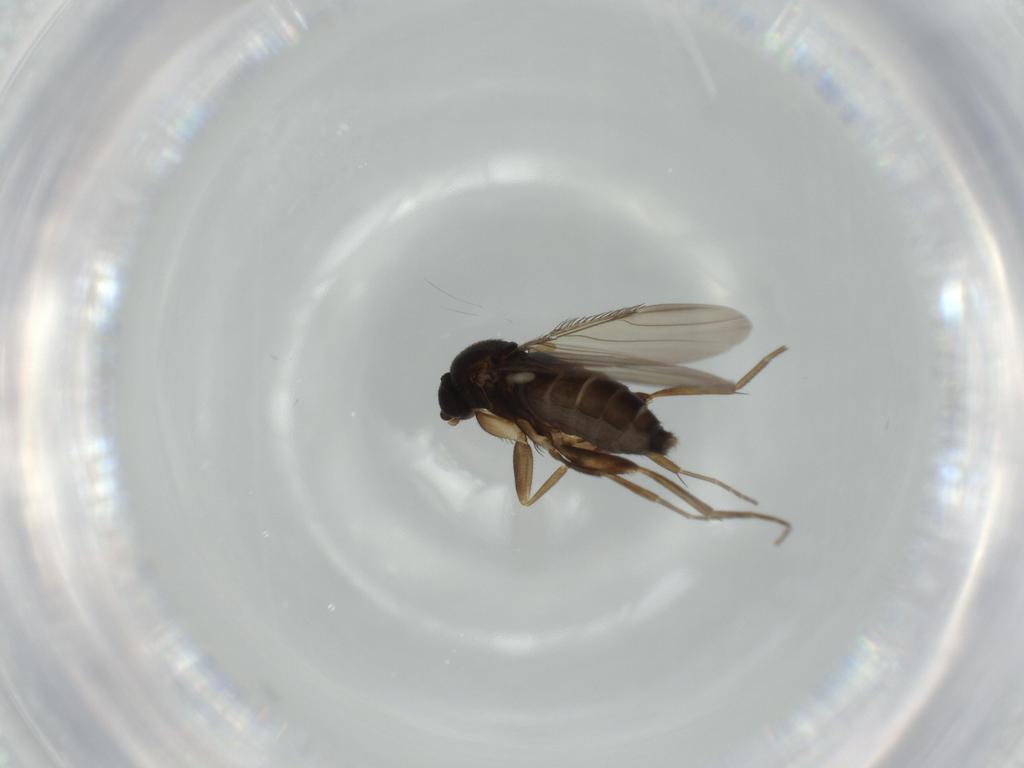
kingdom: Animalia
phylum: Arthropoda
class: Insecta
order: Diptera
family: Phoridae
